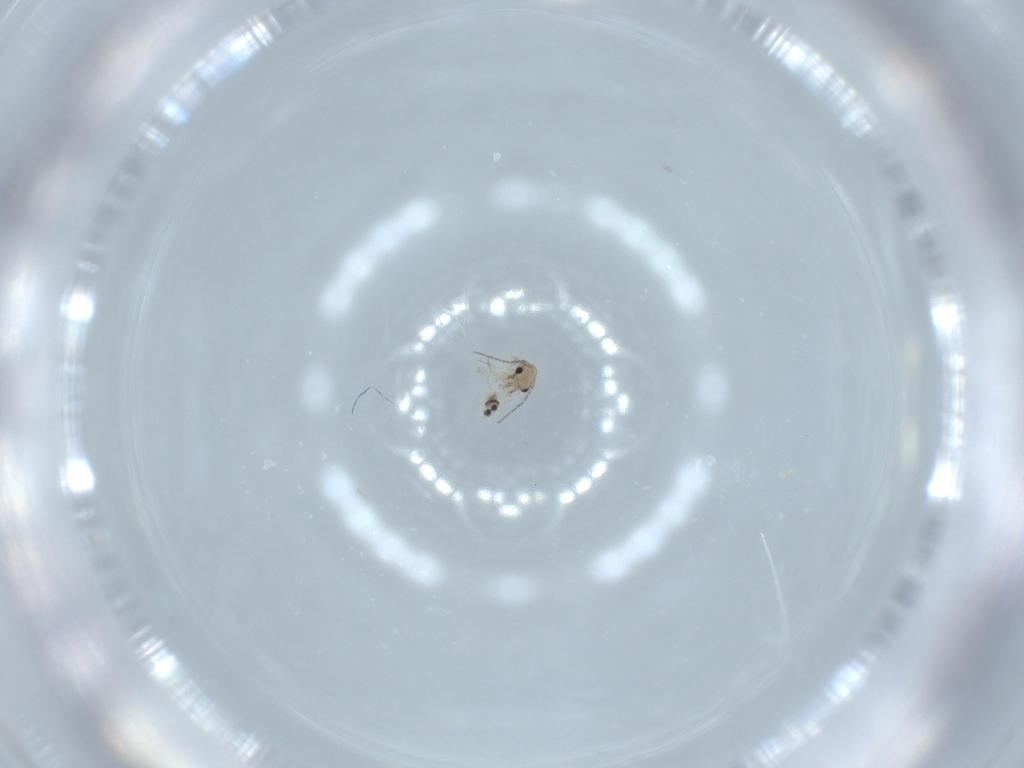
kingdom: Animalia
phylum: Arthropoda
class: Insecta
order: Psocodea
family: Lepidopsocidae
